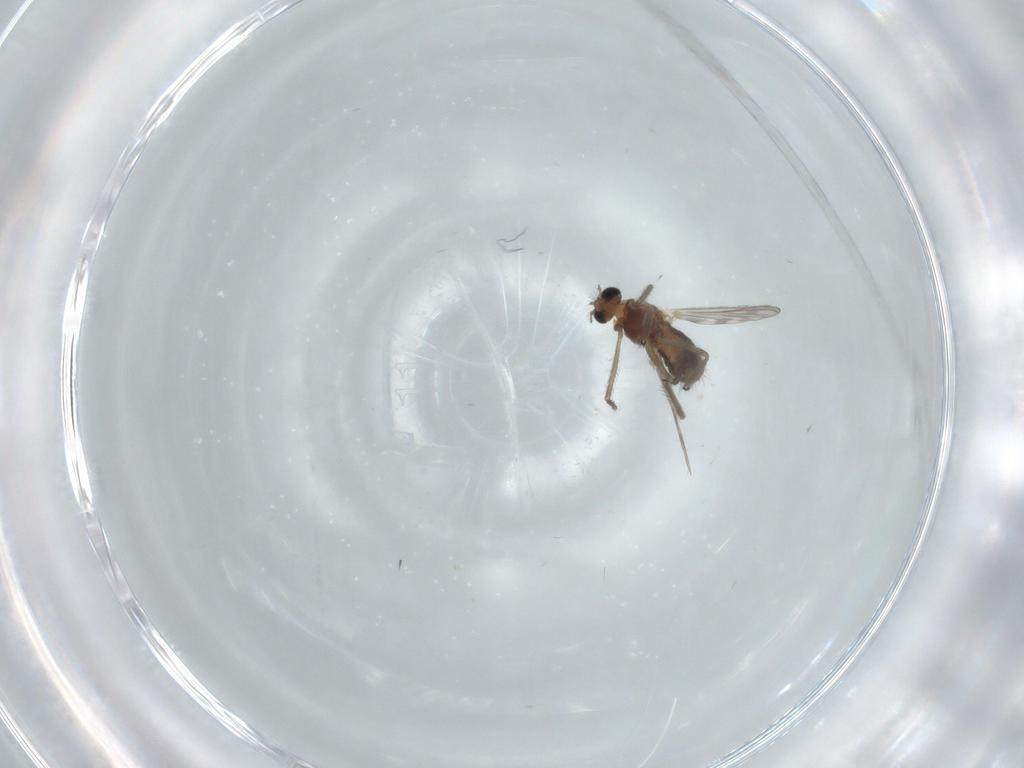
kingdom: Animalia
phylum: Arthropoda
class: Insecta
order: Diptera
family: Chironomidae
